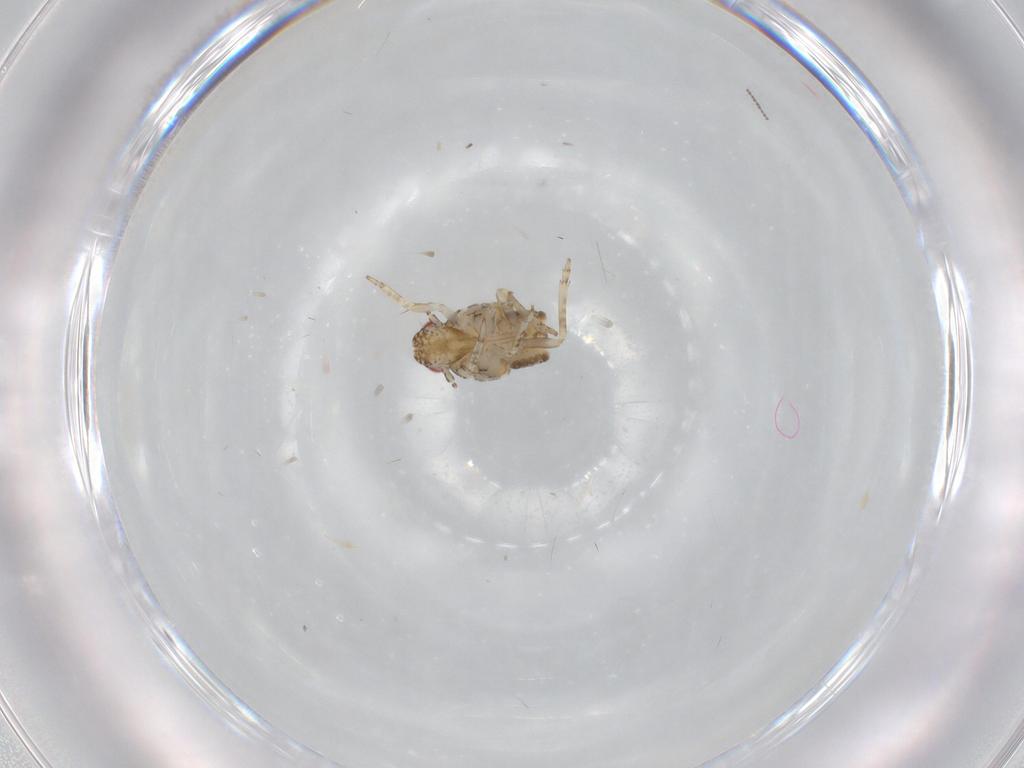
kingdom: Animalia
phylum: Arthropoda
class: Insecta
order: Hemiptera
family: Flatidae
